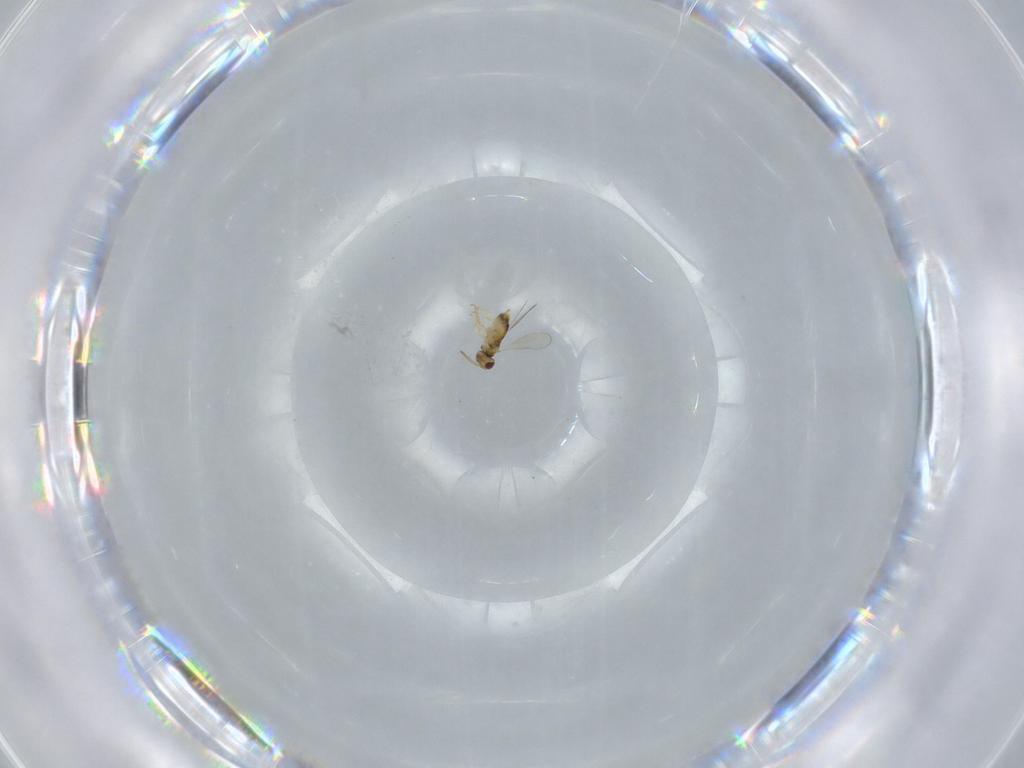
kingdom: Animalia
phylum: Arthropoda
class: Insecta
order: Hymenoptera
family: Aphelinidae
